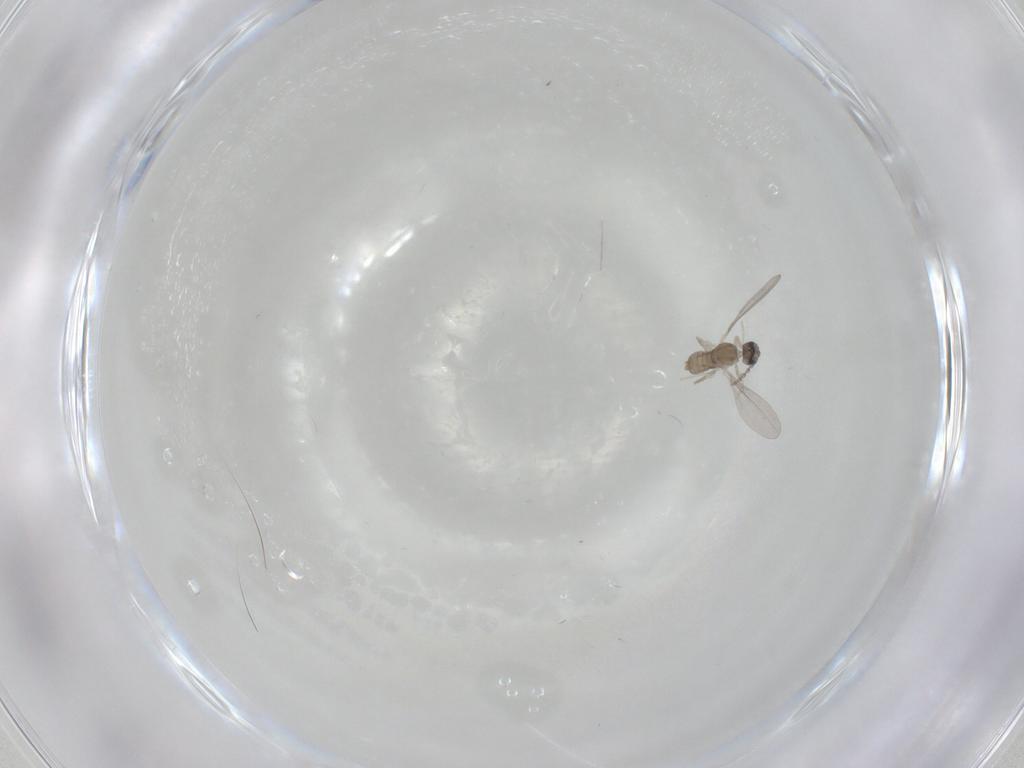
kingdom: Animalia
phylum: Arthropoda
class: Insecta
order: Diptera
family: Cecidomyiidae
